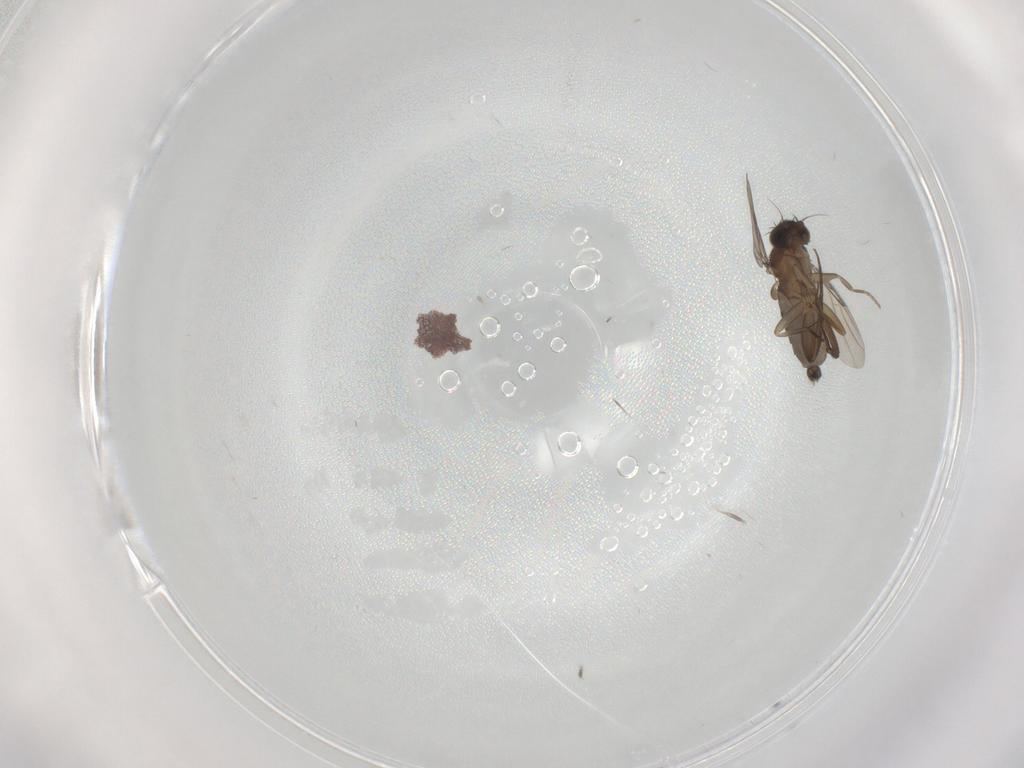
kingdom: Animalia
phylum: Arthropoda
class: Insecta
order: Diptera
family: Phoridae
